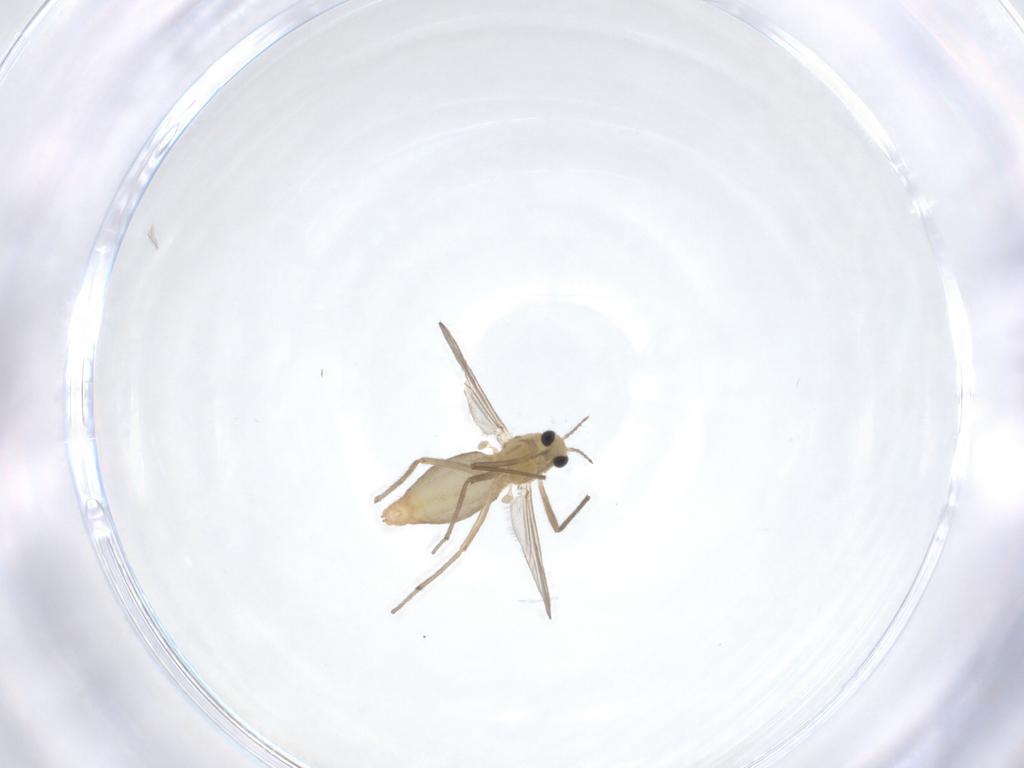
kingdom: Animalia
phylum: Arthropoda
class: Insecta
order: Diptera
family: Chironomidae
